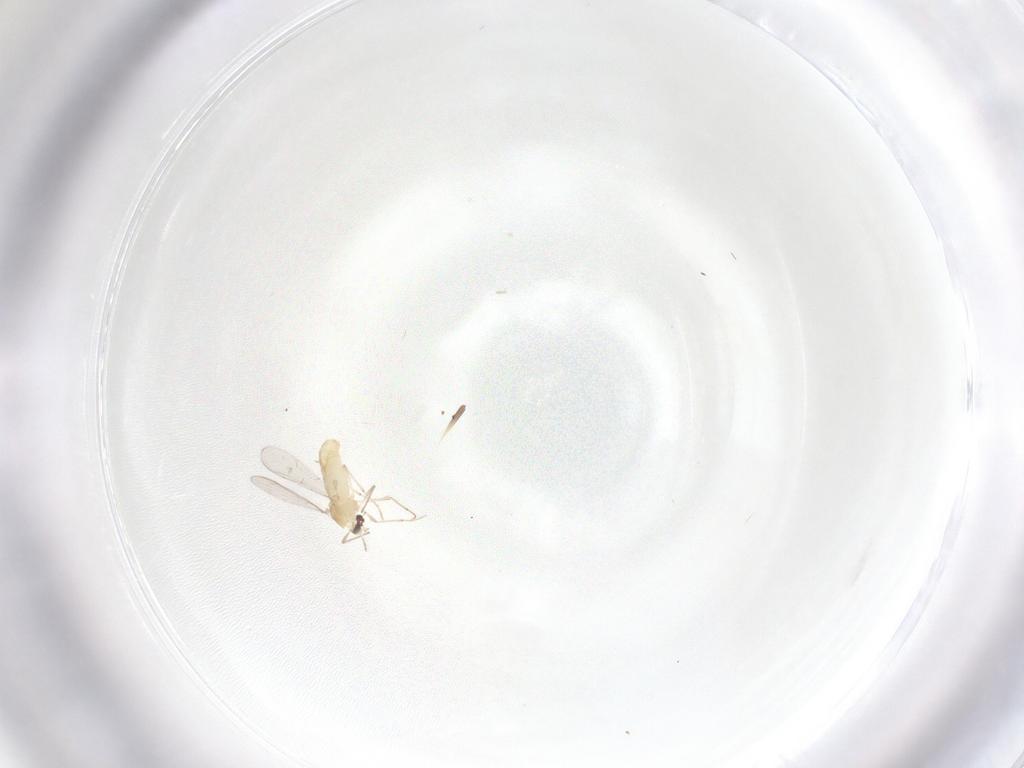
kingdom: Animalia
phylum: Arthropoda
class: Insecta
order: Diptera
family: Chironomidae
